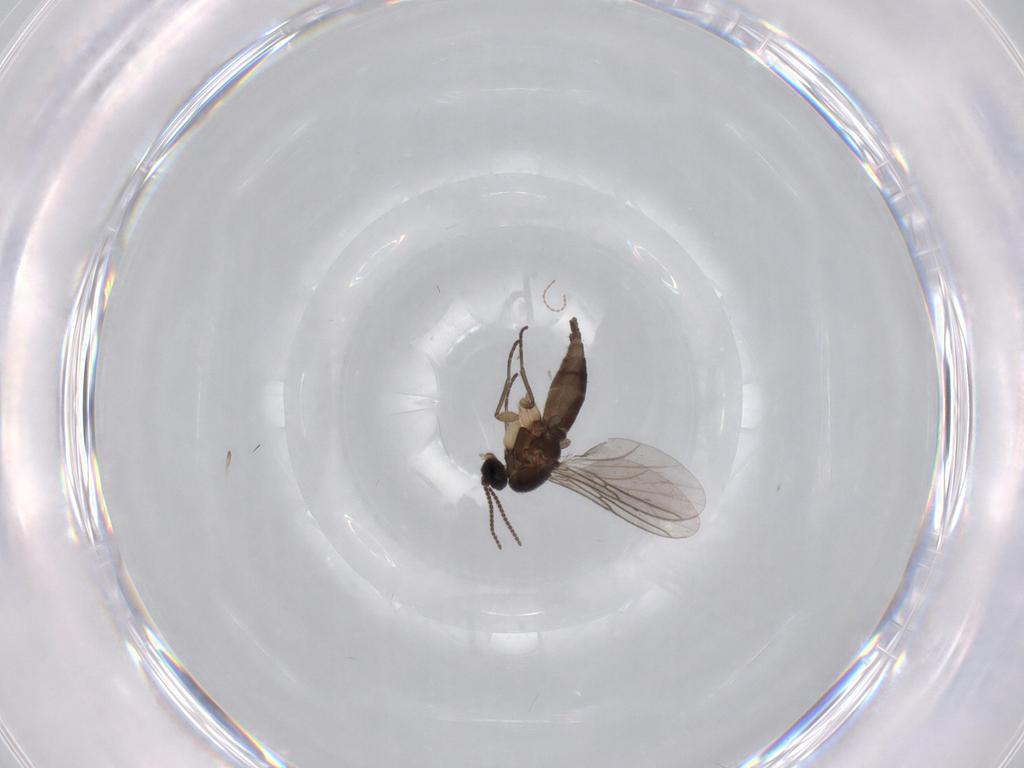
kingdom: Animalia
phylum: Arthropoda
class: Insecta
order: Diptera
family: Sciaridae
